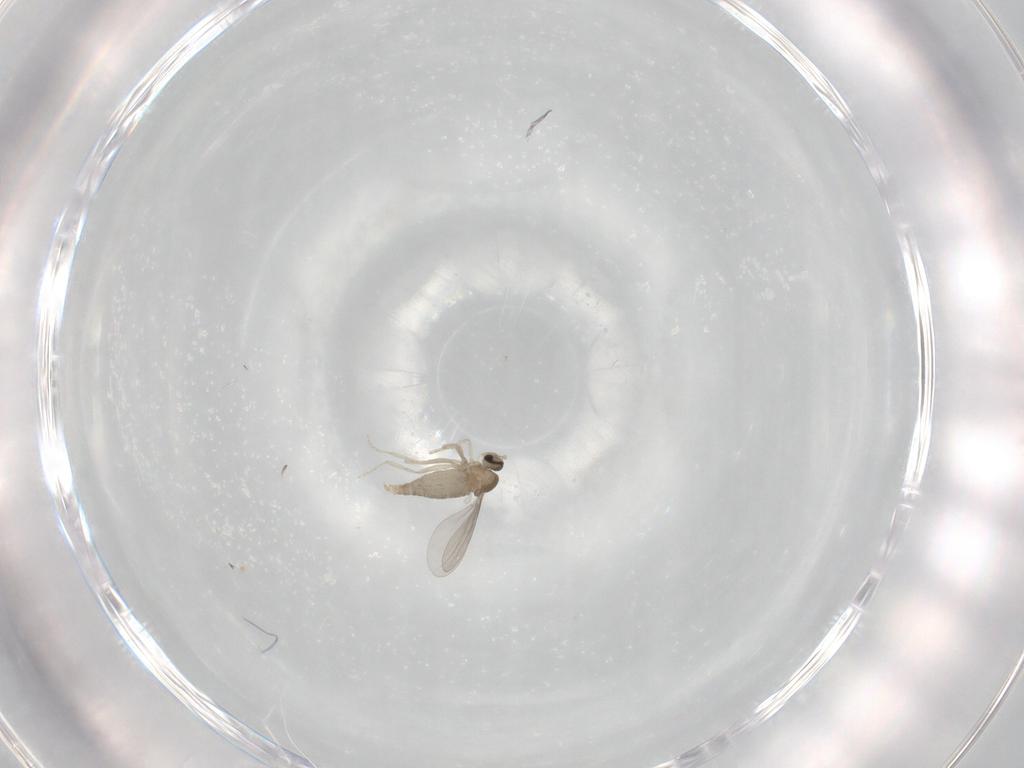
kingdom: Animalia
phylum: Arthropoda
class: Insecta
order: Diptera
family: Cecidomyiidae
